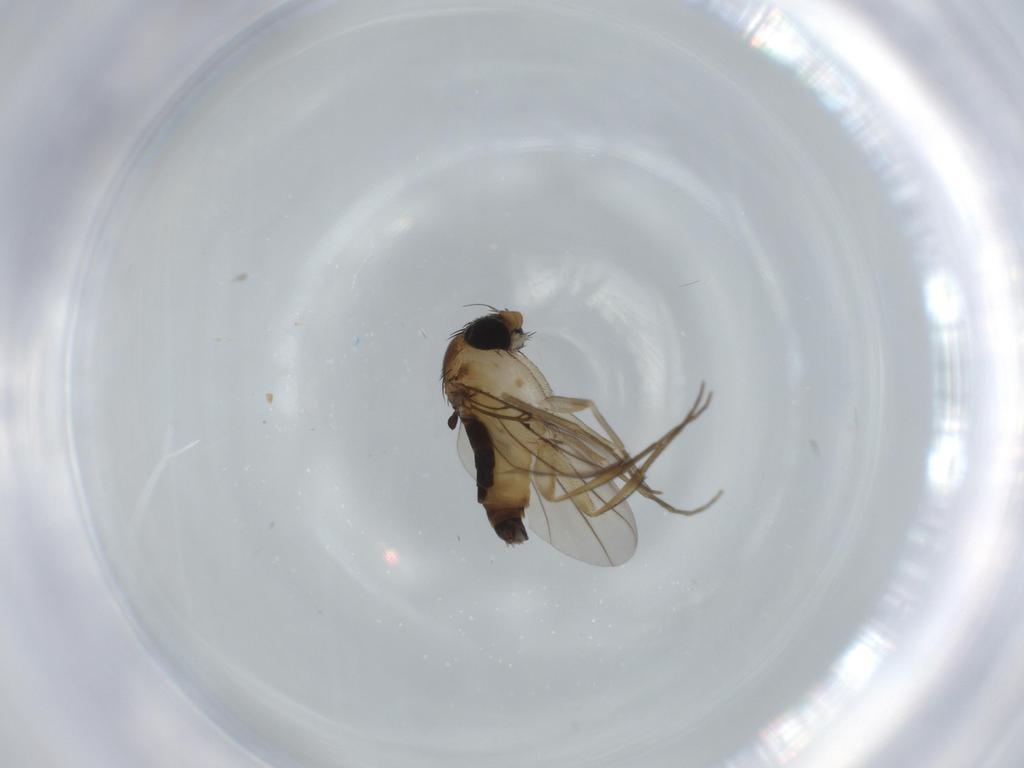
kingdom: Animalia
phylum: Arthropoda
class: Insecta
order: Diptera
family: Phoridae
